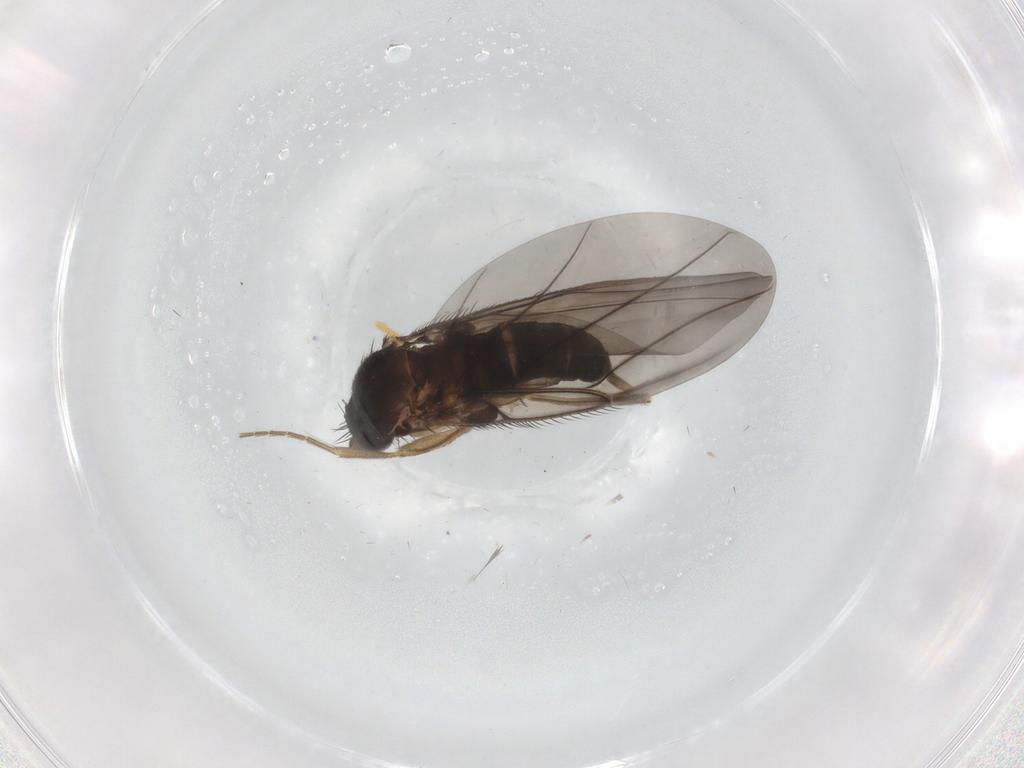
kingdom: Animalia
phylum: Arthropoda
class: Insecta
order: Diptera
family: Phoridae
